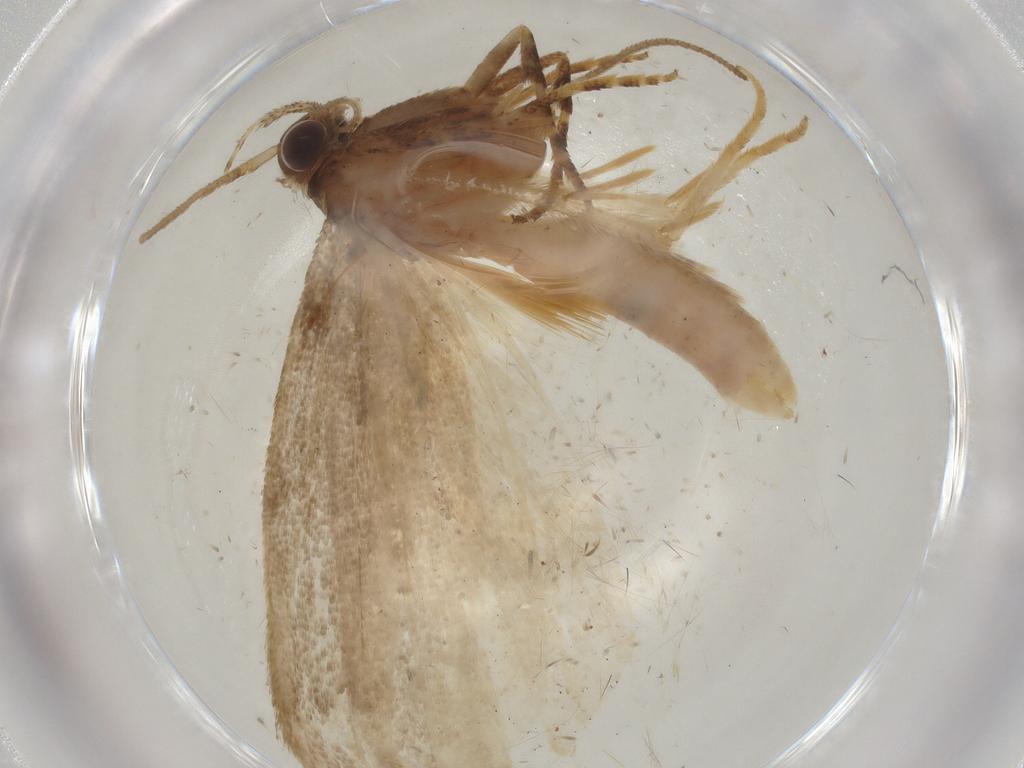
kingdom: Animalia
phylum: Arthropoda
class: Insecta
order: Lepidoptera
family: Gelechiidae
